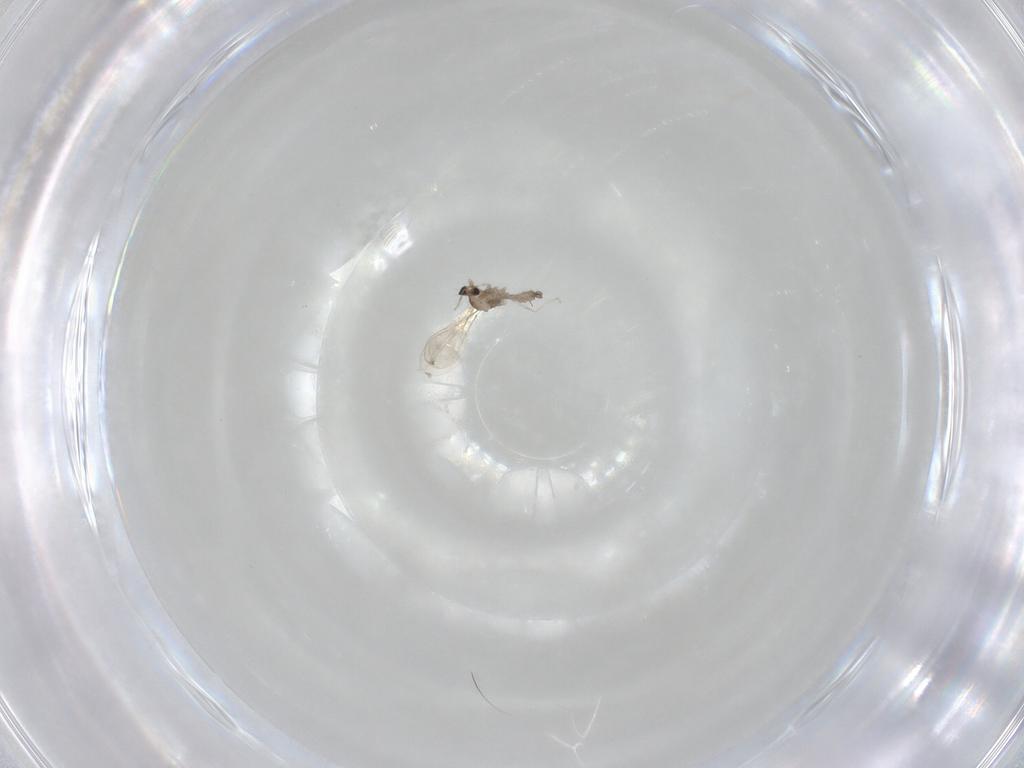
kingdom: Animalia
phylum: Arthropoda
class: Insecta
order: Diptera
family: Cecidomyiidae
